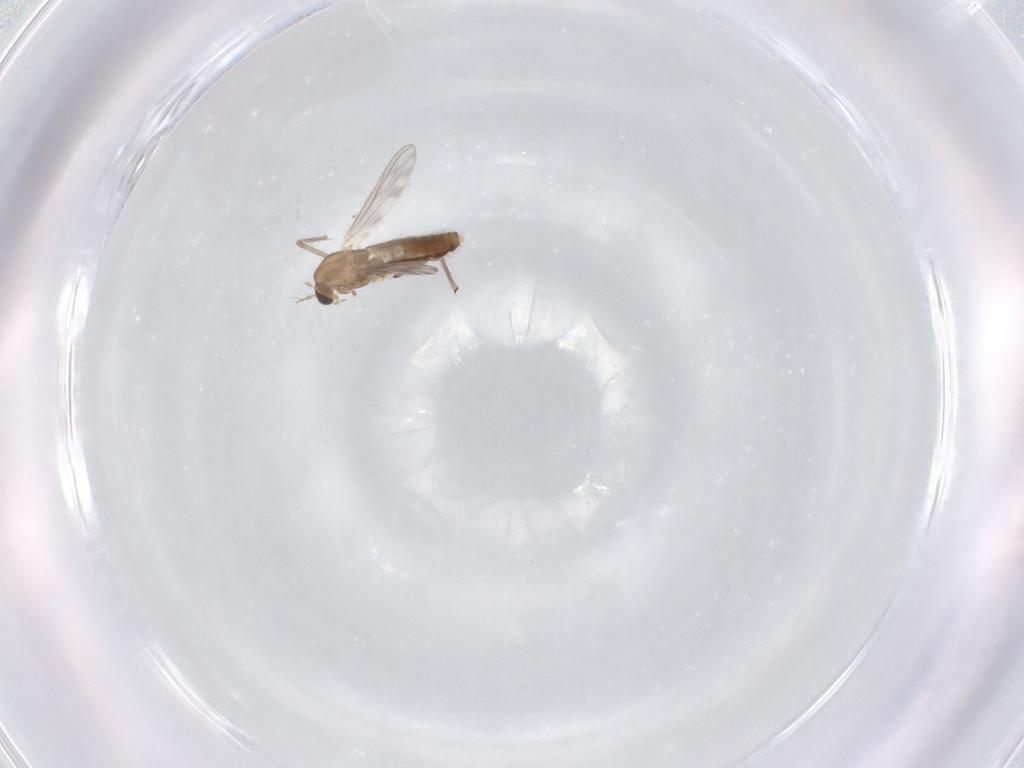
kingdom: Animalia
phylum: Arthropoda
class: Insecta
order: Diptera
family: Chironomidae
